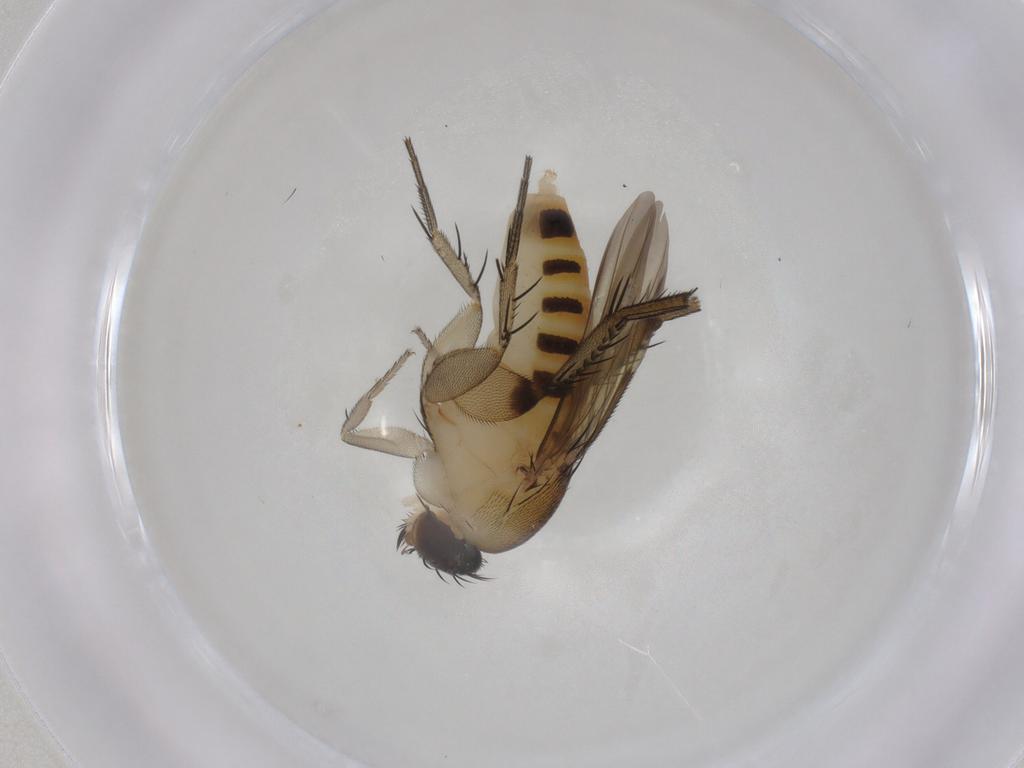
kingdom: Animalia
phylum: Arthropoda
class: Insecta
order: Diptera
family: Phoridae
